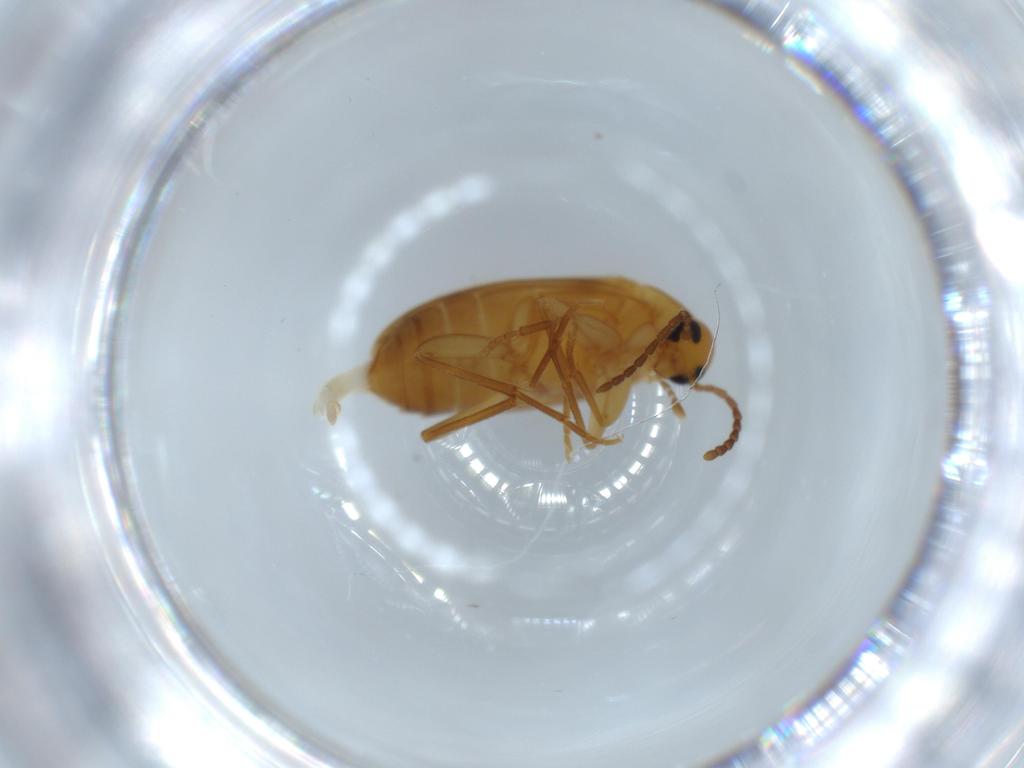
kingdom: Animalia
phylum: Arthropoda
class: Insecta
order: Coleoptera
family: Scraptiidae
